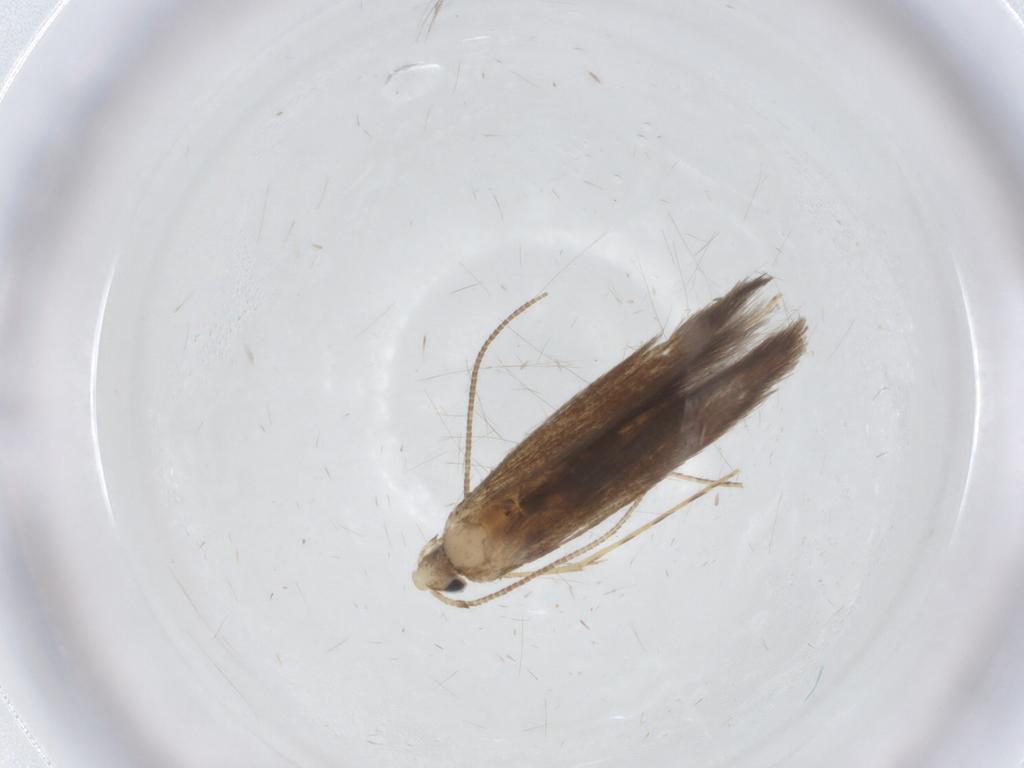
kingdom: Animalia
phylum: Arthropoda
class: Insecta
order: Lepidoptera
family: Psychidae
